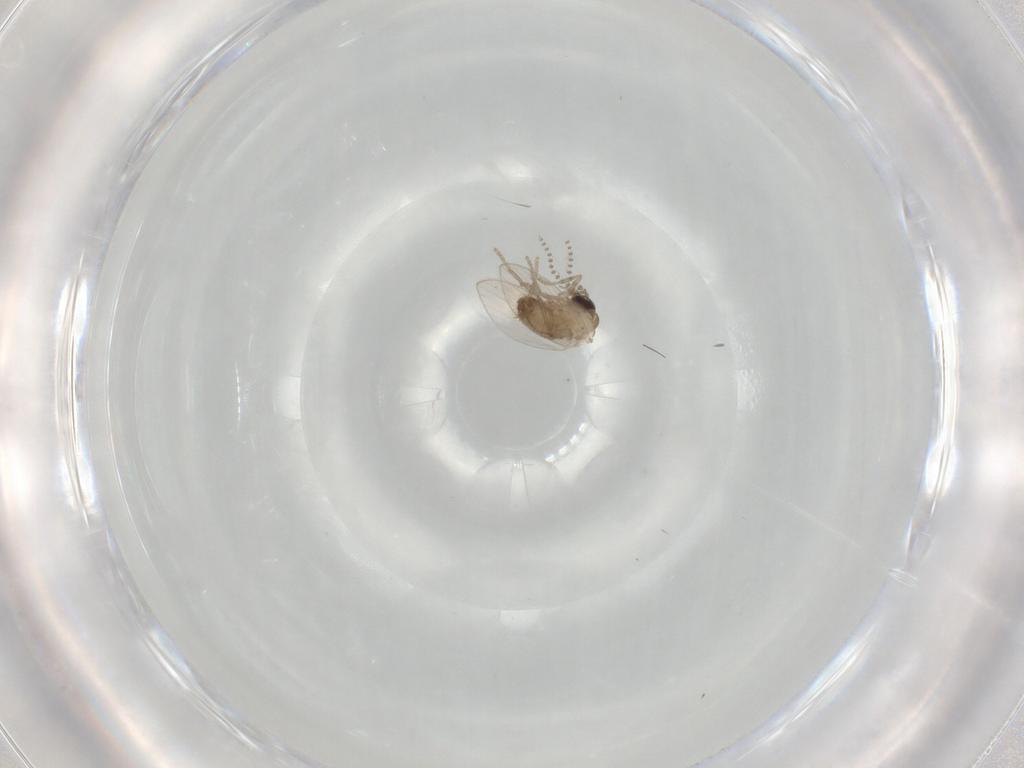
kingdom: Animalia
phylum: Arthropoda
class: Insecta
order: Diptera
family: Psychodidae
